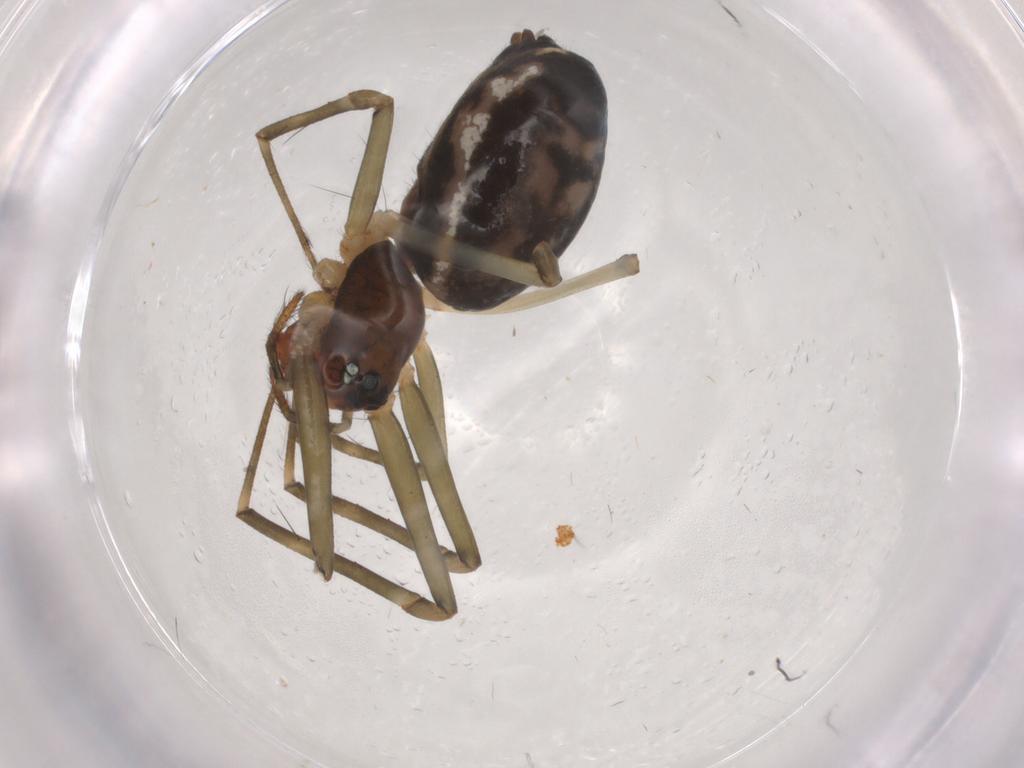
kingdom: Animalia
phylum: Arthropoda
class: Arachnida
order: Araneae
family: Linyphiidae
